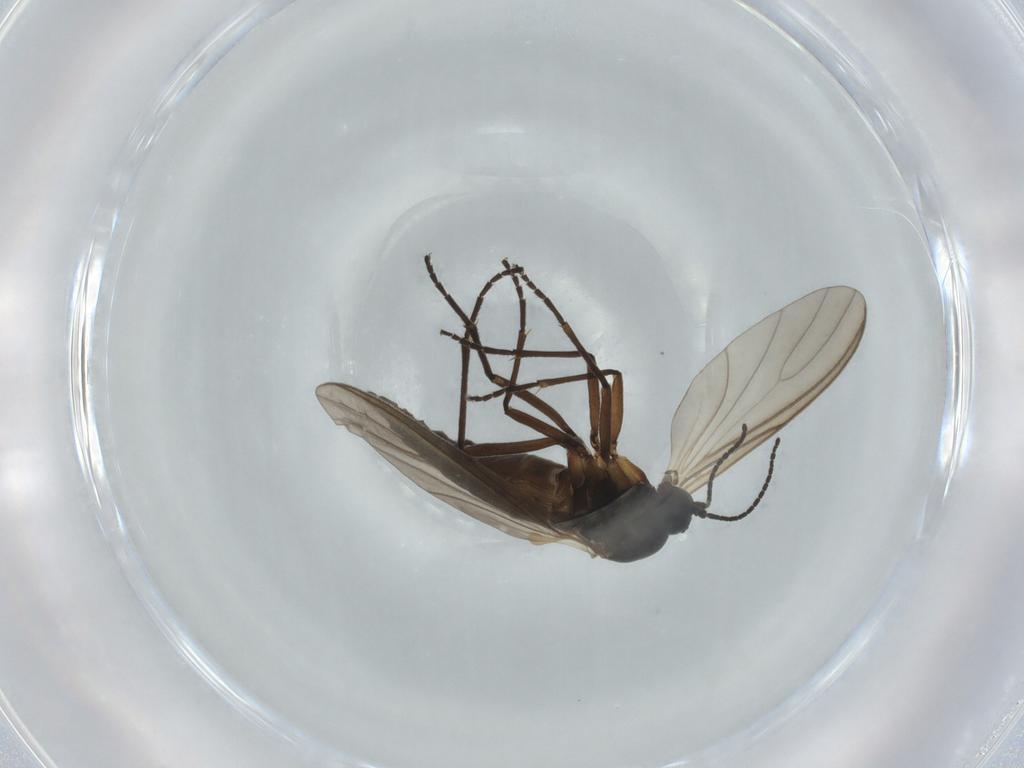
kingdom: Animalia
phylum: Arthropoda
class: Insecta
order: Diptera
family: Sciaridae
